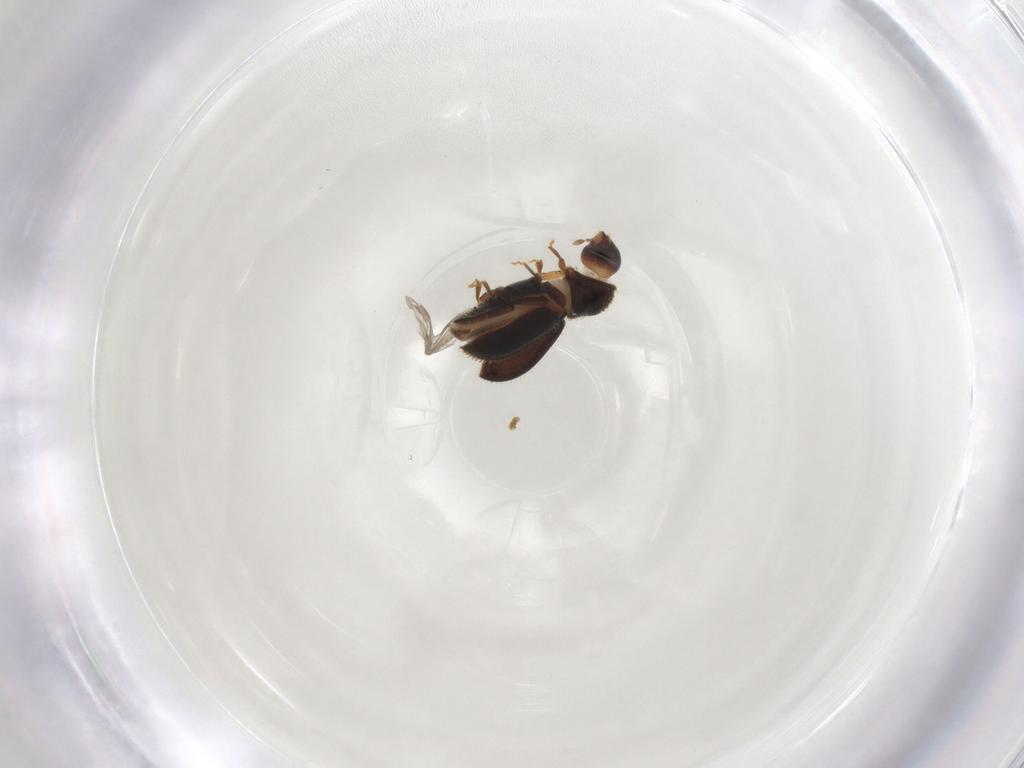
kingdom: Animalia
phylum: Arthropoda
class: Insecta
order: Coleoptera
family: Curculionidae
